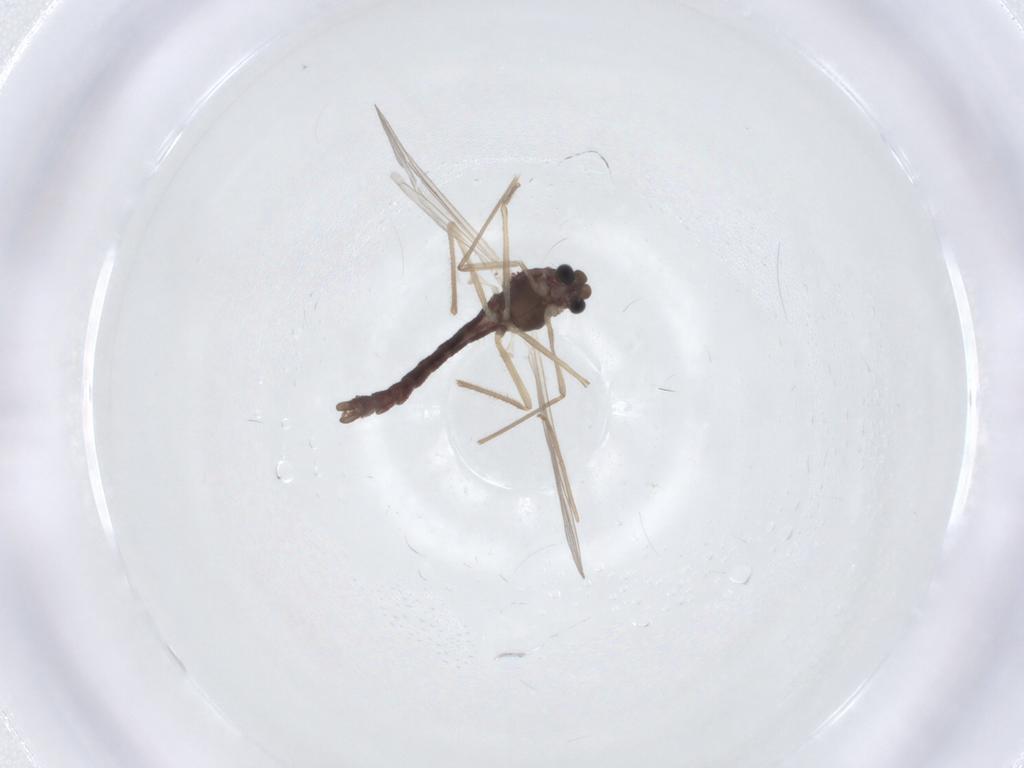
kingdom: Animalia
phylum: Arthropoda
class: Insecta
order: Diptera
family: Chironomidae
